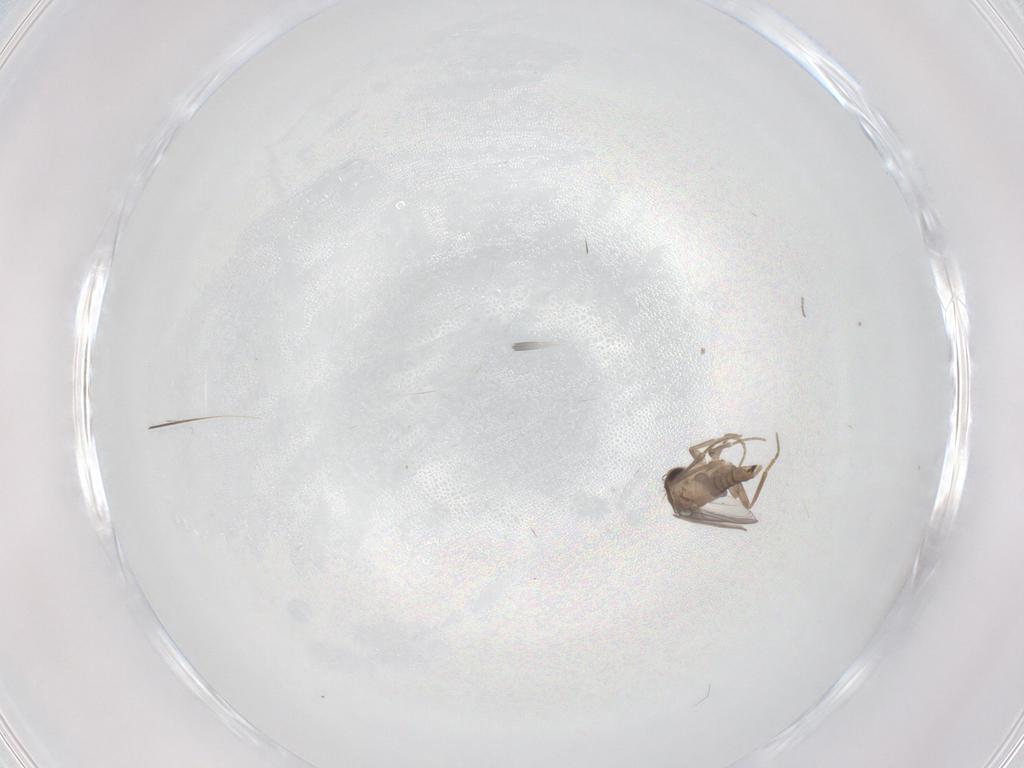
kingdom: Animalia
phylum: Arthropoda
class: Insecta
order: Diptera
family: Cecidomyiidae
